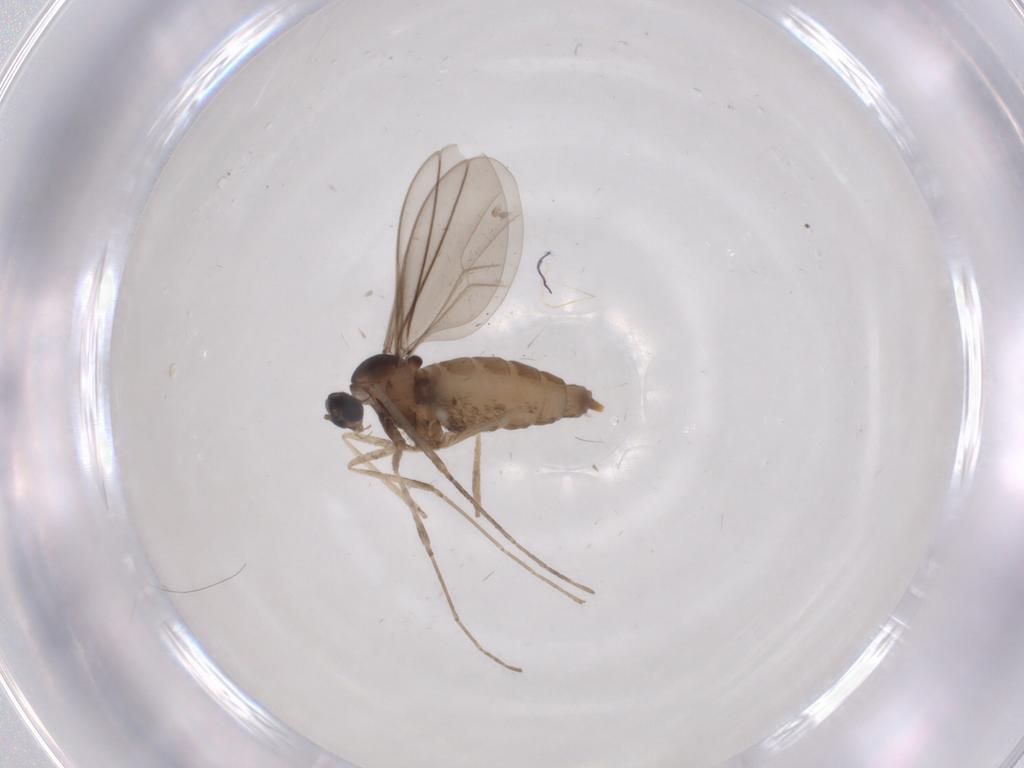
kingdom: Animalia
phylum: Arthropoda
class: Insecta
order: Diptera
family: Cecidomyiidae
